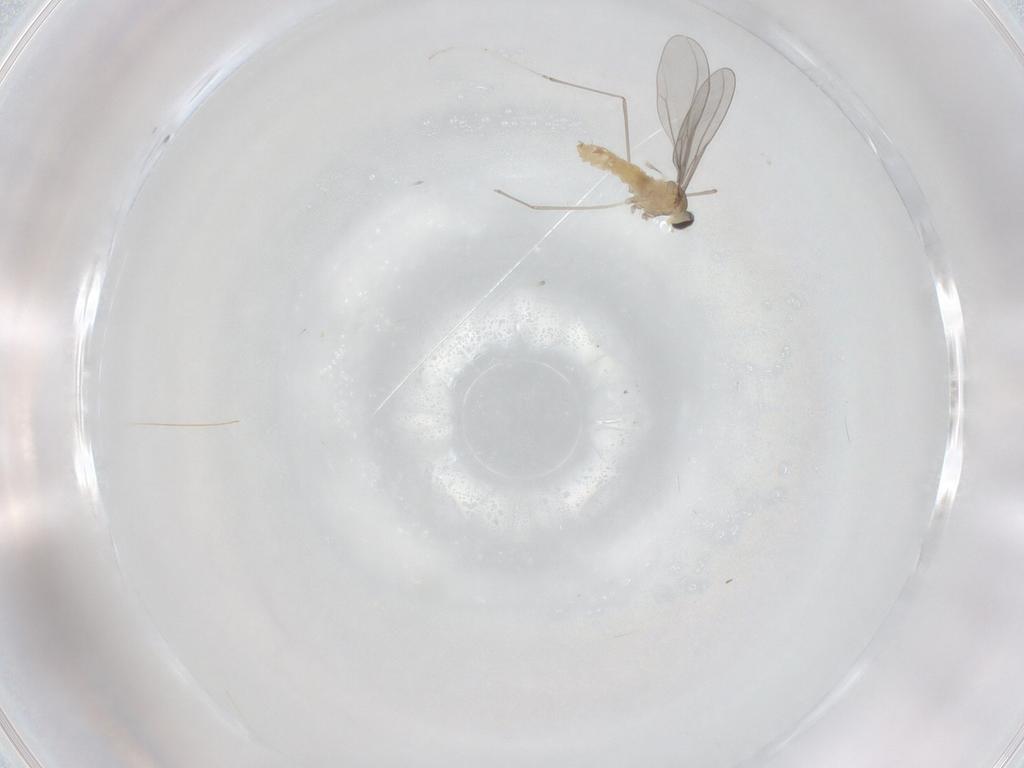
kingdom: Animalia
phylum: Arthropoda
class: Insecta
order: Diptera
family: Cecidomyiidae
